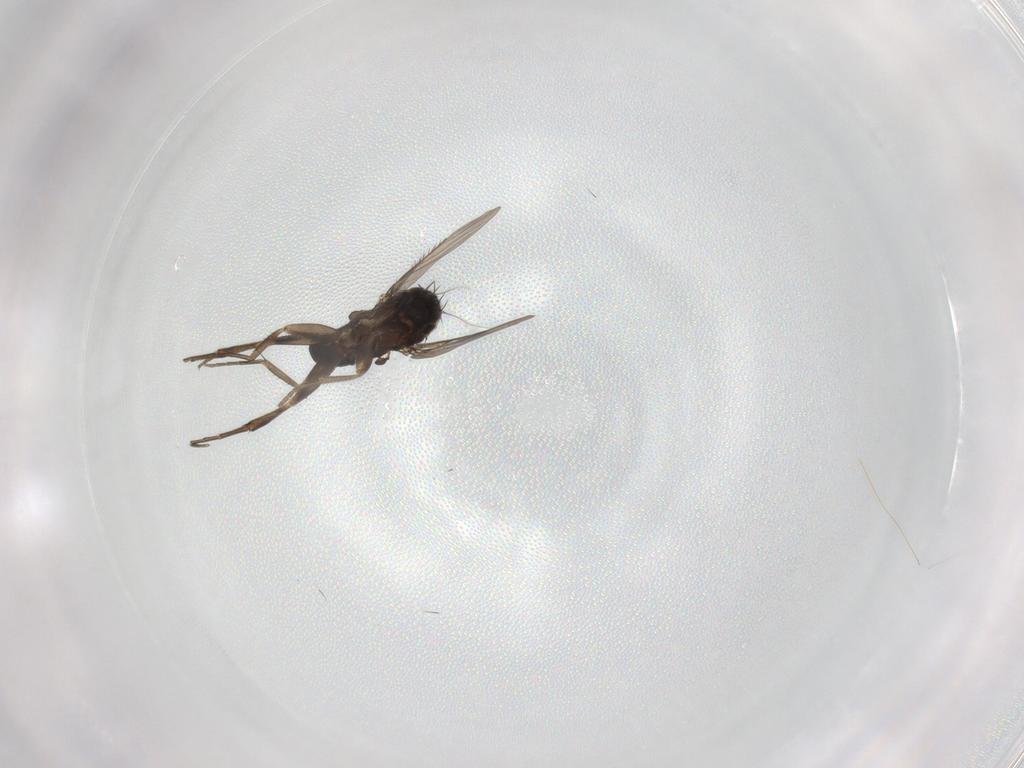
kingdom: Animalia
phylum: Arthropoda
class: Insecta
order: Diptera
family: Phoridae
